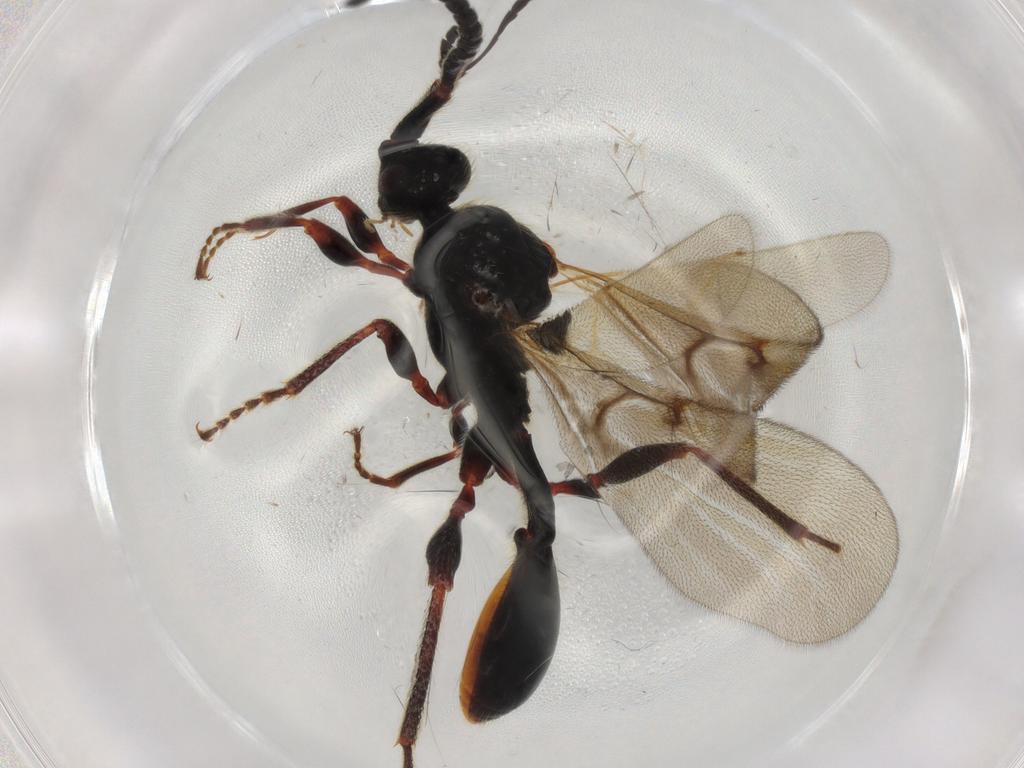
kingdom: Animalia
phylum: Arthropoda
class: Insecta
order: Hymenoptera
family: Diapriidae
